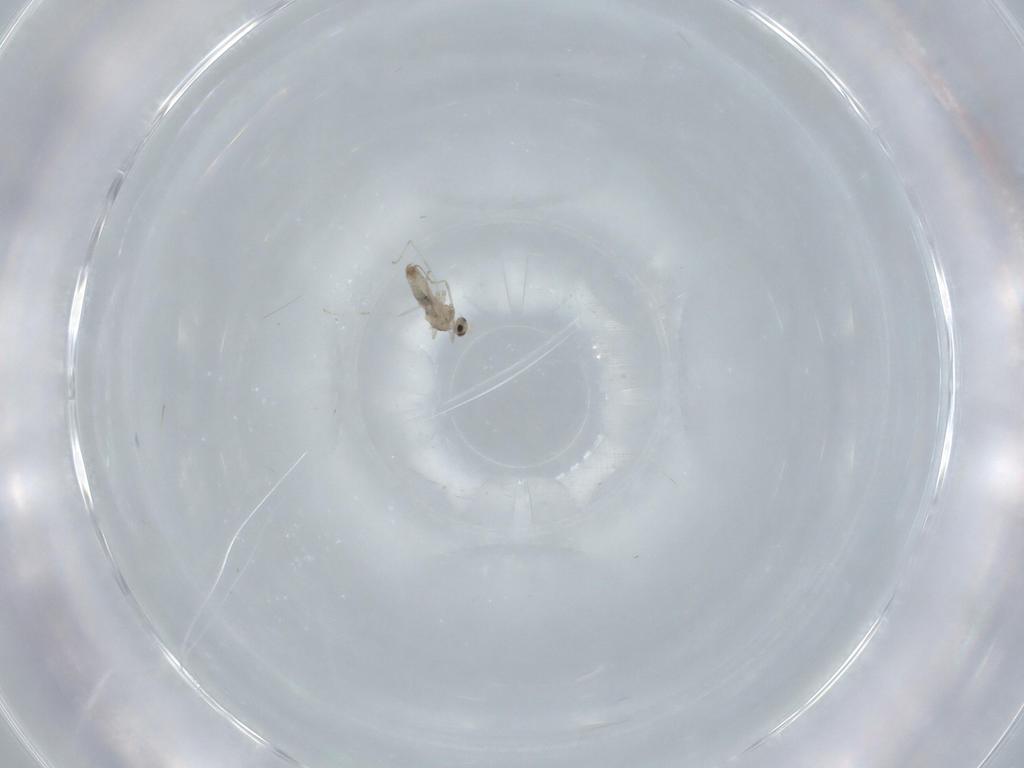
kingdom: Animalia
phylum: Arthropoda
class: Insecta
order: Diptera
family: Cecidomyiidae
